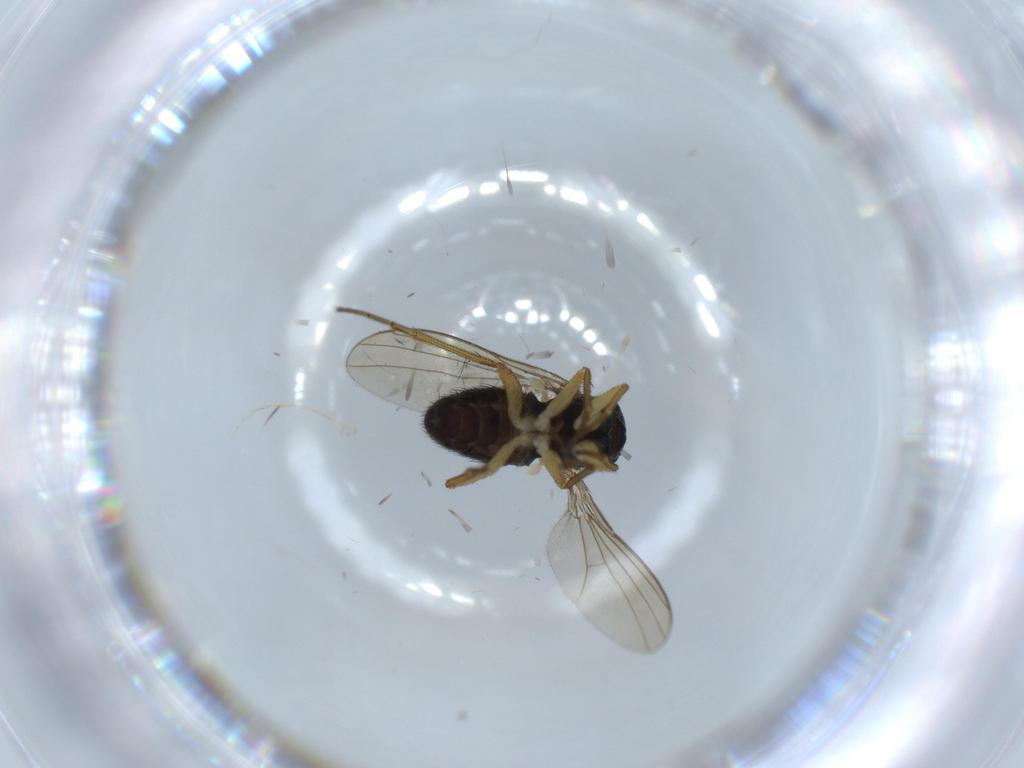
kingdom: Animalia
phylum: Arthropoda
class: Insecta
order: Diptera
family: Dolichopodidae
